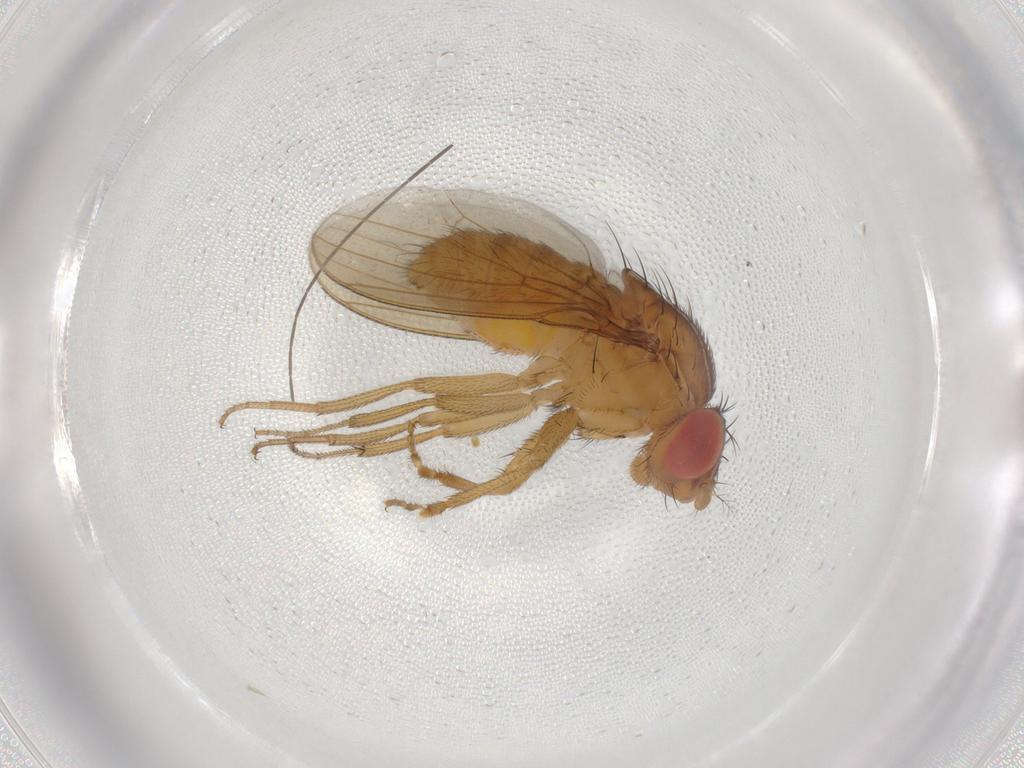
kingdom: Animalia
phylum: Arthropoda
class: Insecta
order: Diptera
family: Drosophilidae
